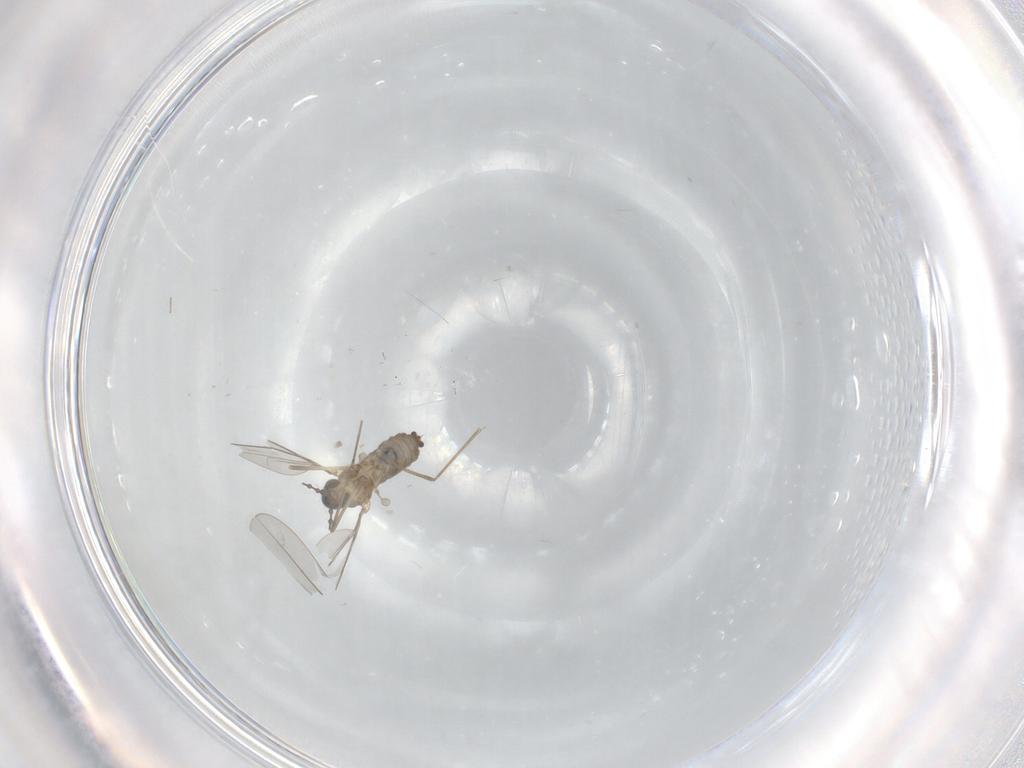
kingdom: Animalia
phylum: Arthropoda
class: Insecta
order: Diptera
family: Cecidomyiidae
